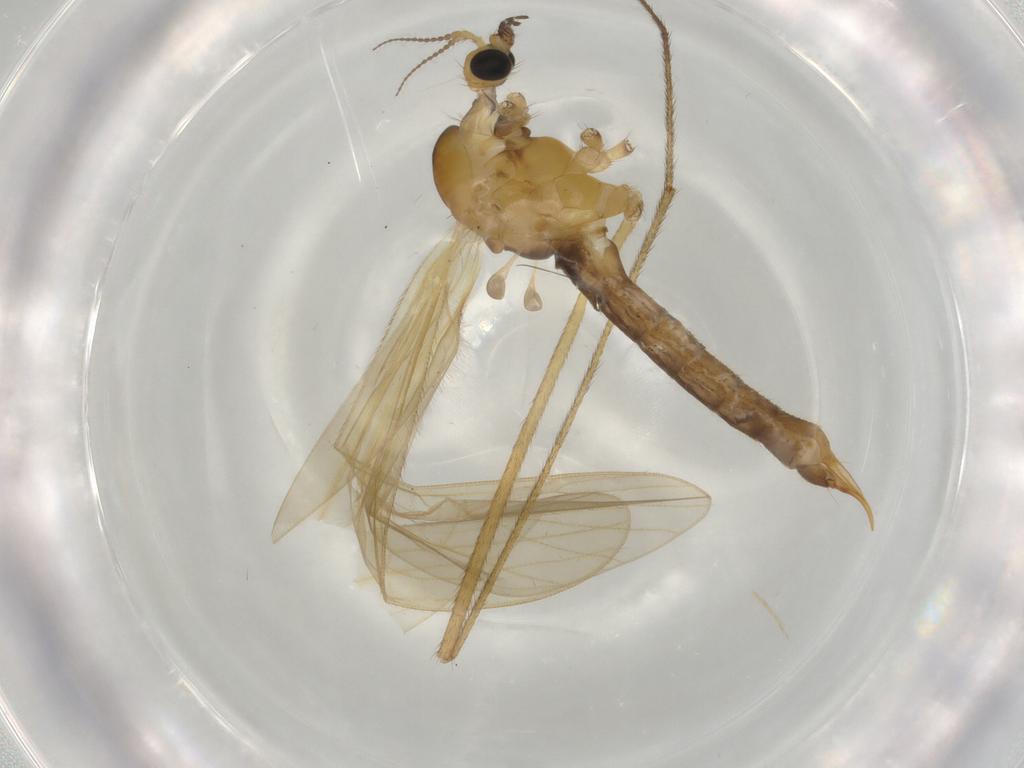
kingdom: Animalia
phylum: Arthropoda
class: Insecta
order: Diptera
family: Limoniidae
